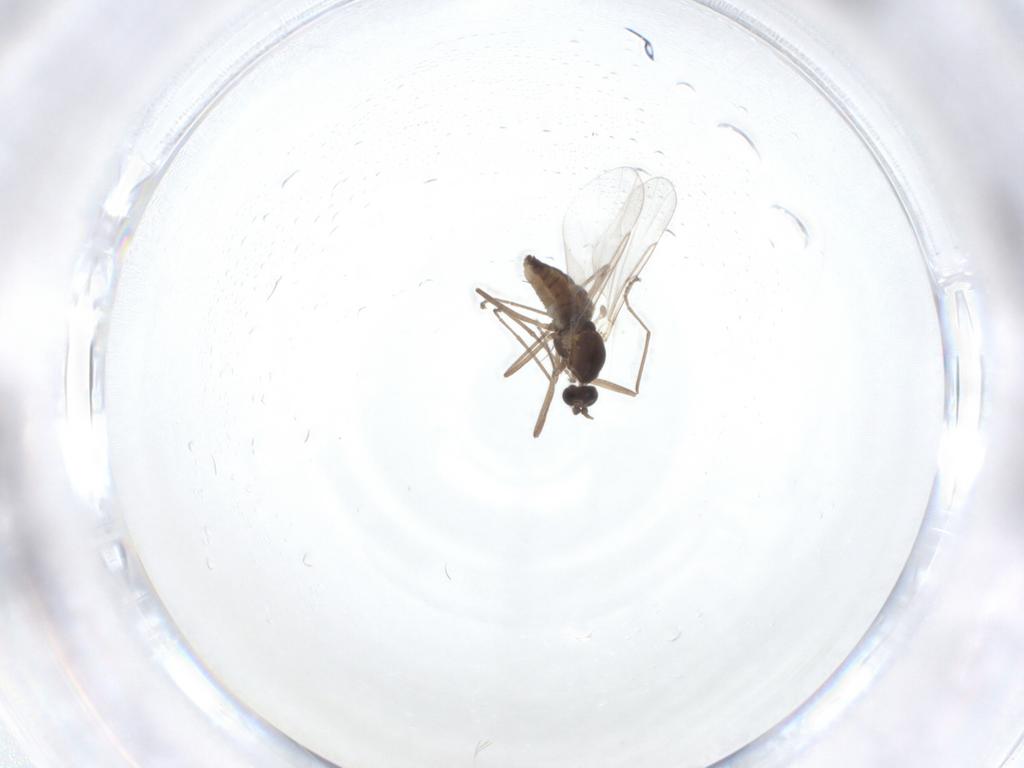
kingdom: Animalia
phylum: Arthropoda
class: Insecta
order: Diptera
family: Cecidomyiidae
